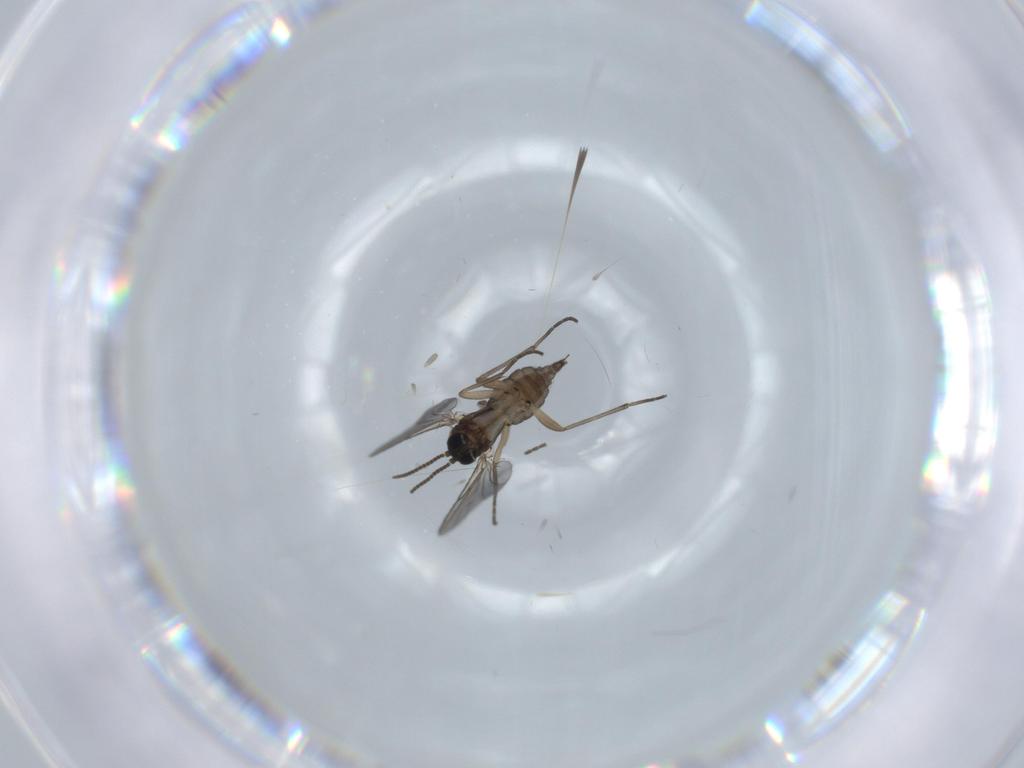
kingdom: Animalia
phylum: Arthropoda
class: Insecta
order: Diptera
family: Sciaridae
